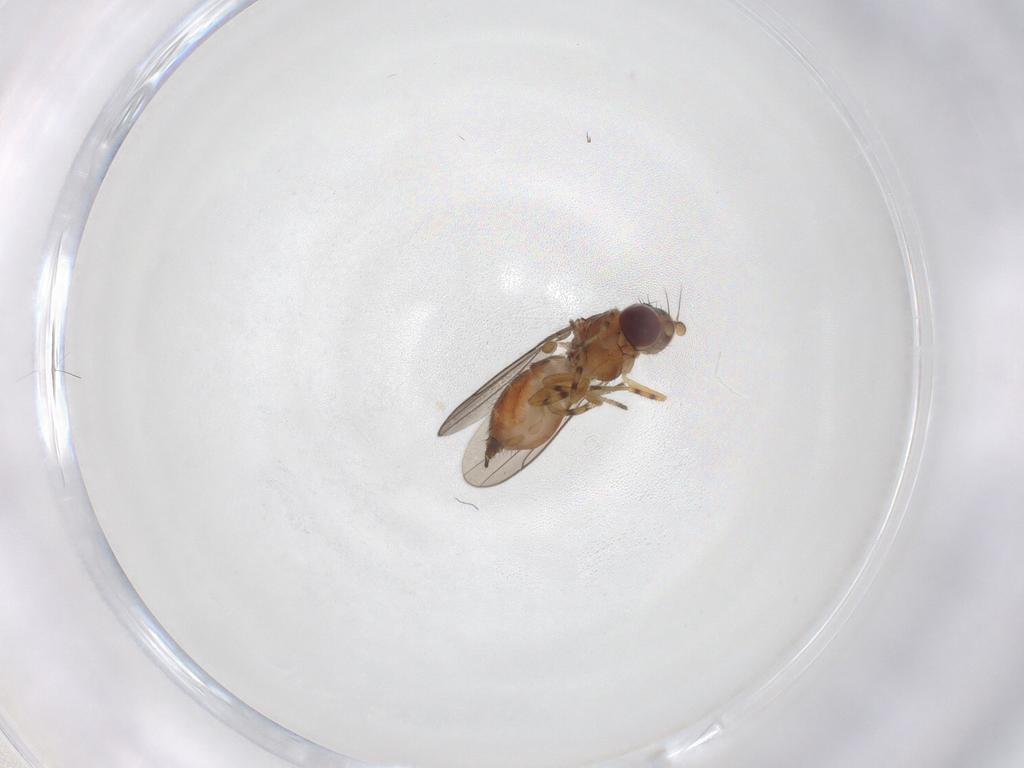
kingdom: Animalia
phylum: Arthropoda
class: Insecta
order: Diptera
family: Chloropidae
